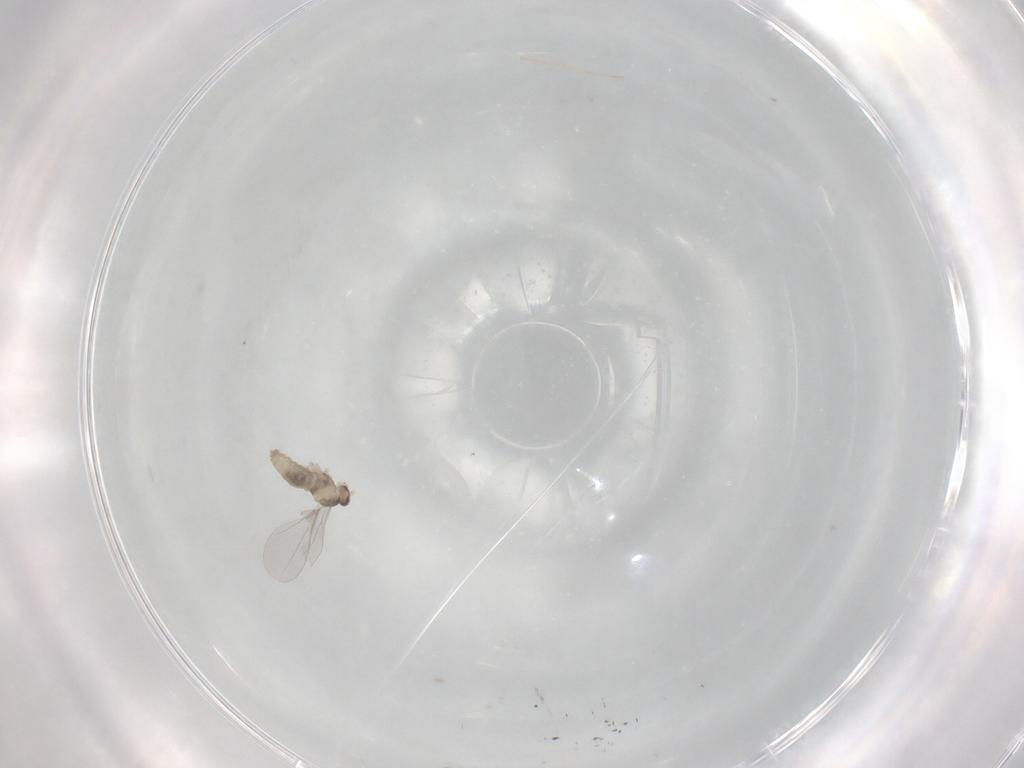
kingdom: Animalia
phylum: Arthropoda
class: Insecta
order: Diptera
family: Cecidomyiidae
